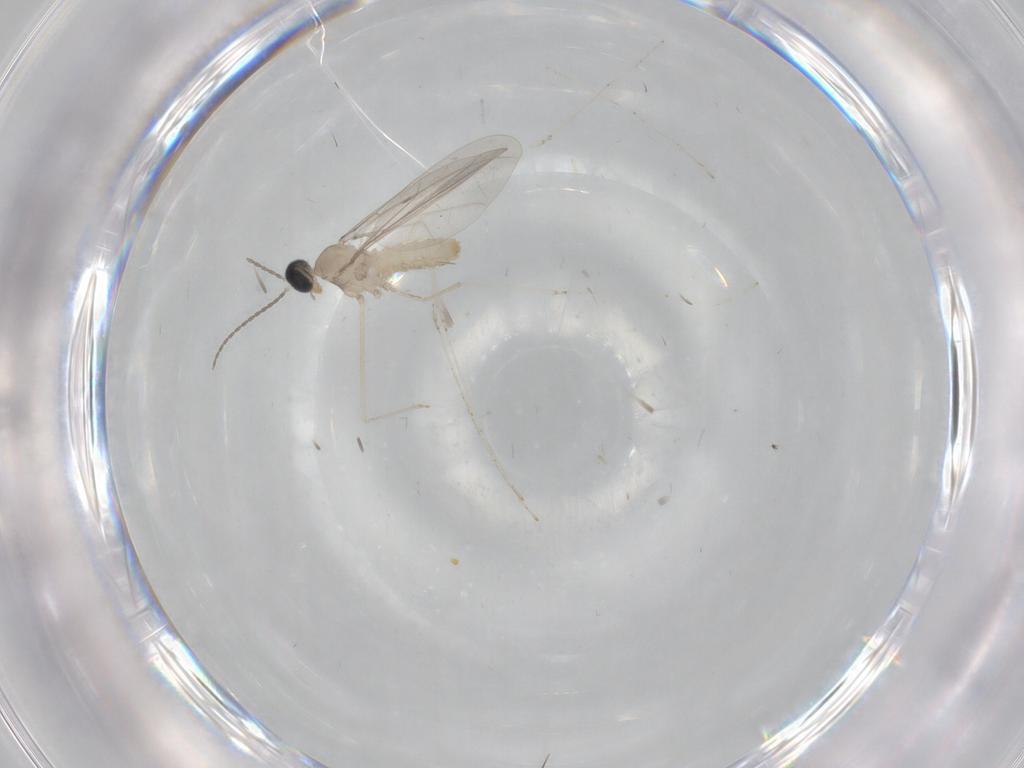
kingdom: Animalia
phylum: Arthropoda
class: Insecta
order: Diptera
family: Cecidomyiidae
